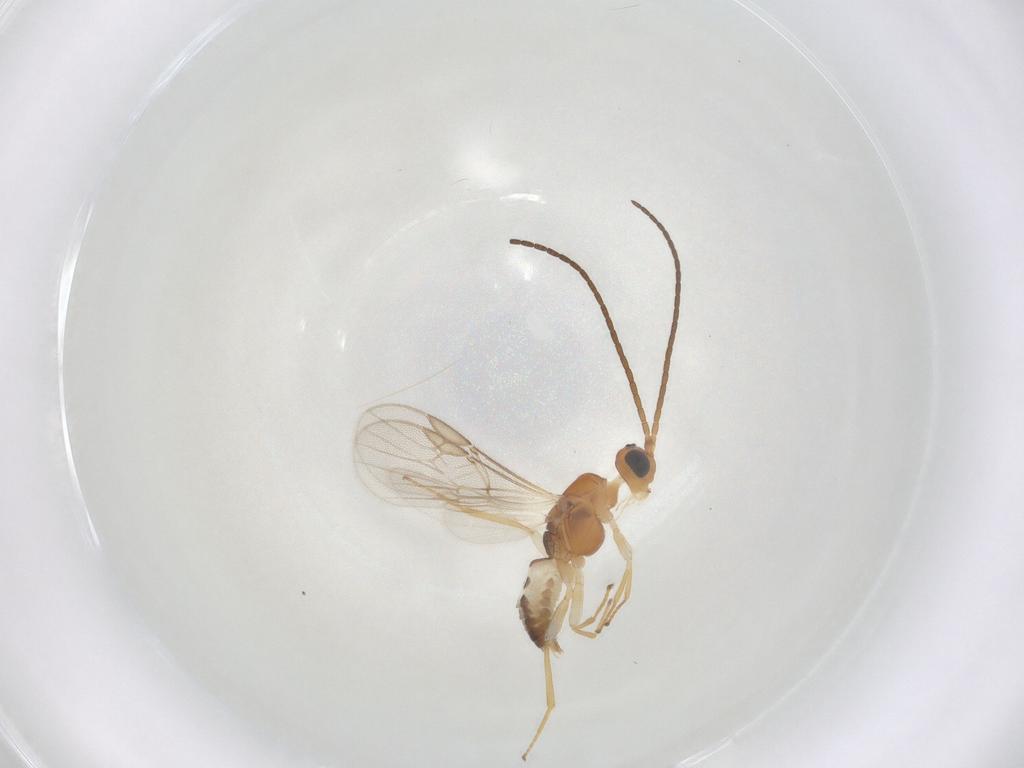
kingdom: Animalia
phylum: Arthropoda
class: Insecta
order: Hymenoptera
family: Braconidae
